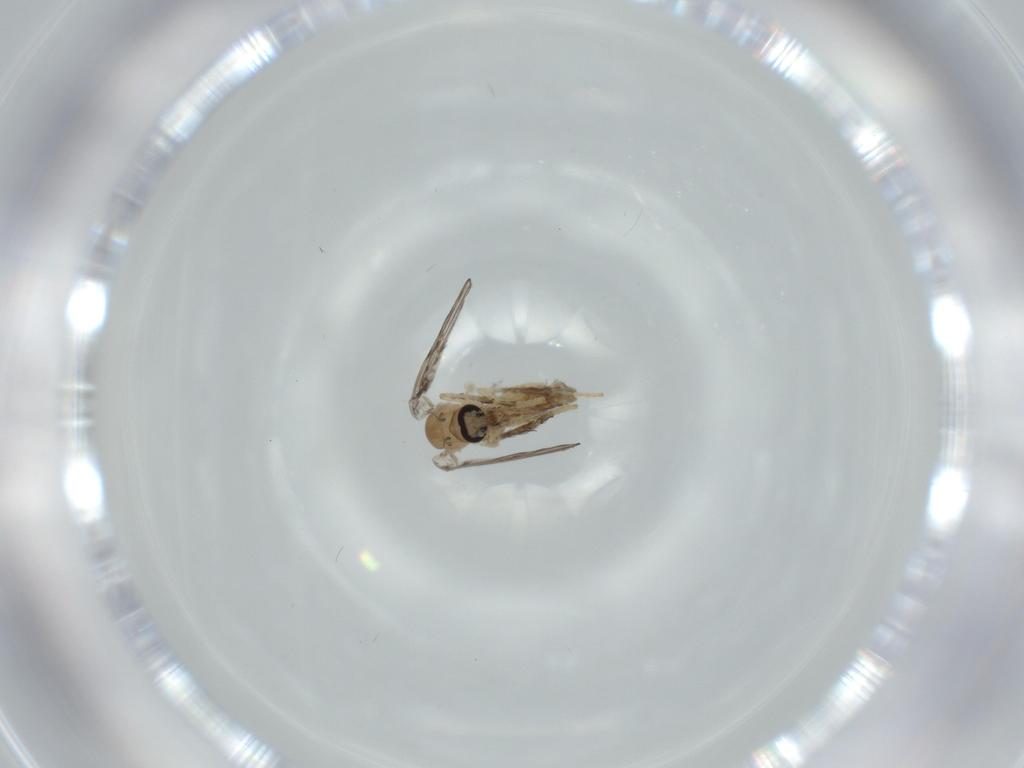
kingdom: Animalia
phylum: Arthropoda
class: Insecta
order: Diptera
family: Psychodidae
